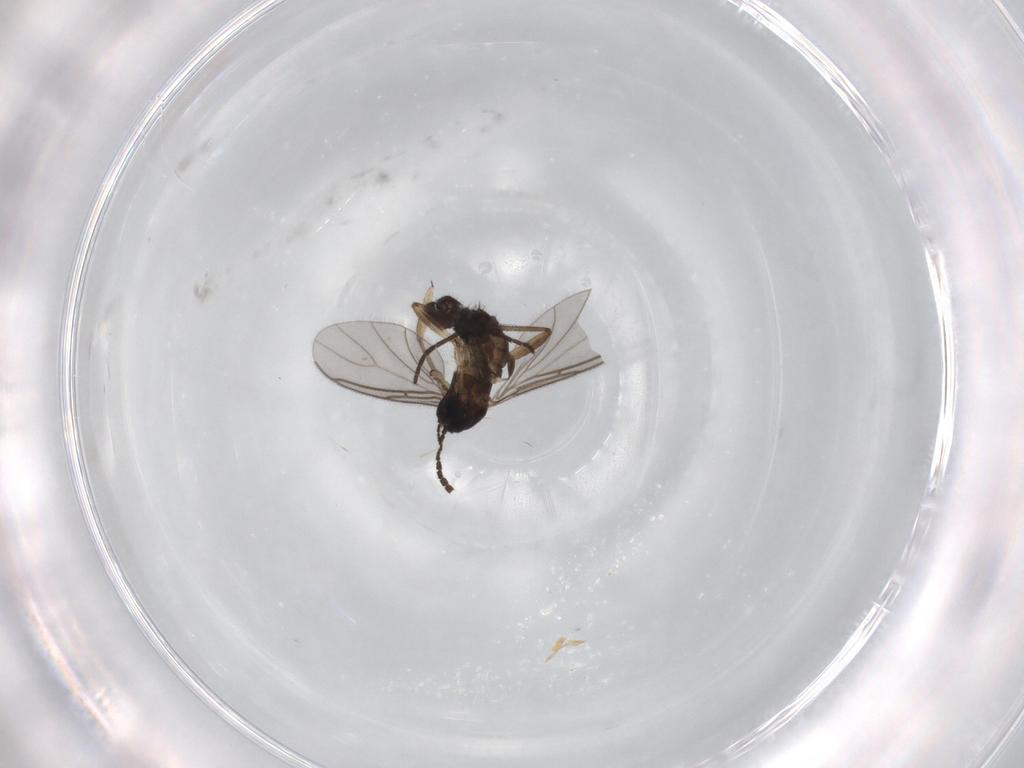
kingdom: Animalia
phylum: Arthropoda
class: Insecta
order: Diptera
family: Sciaridae
